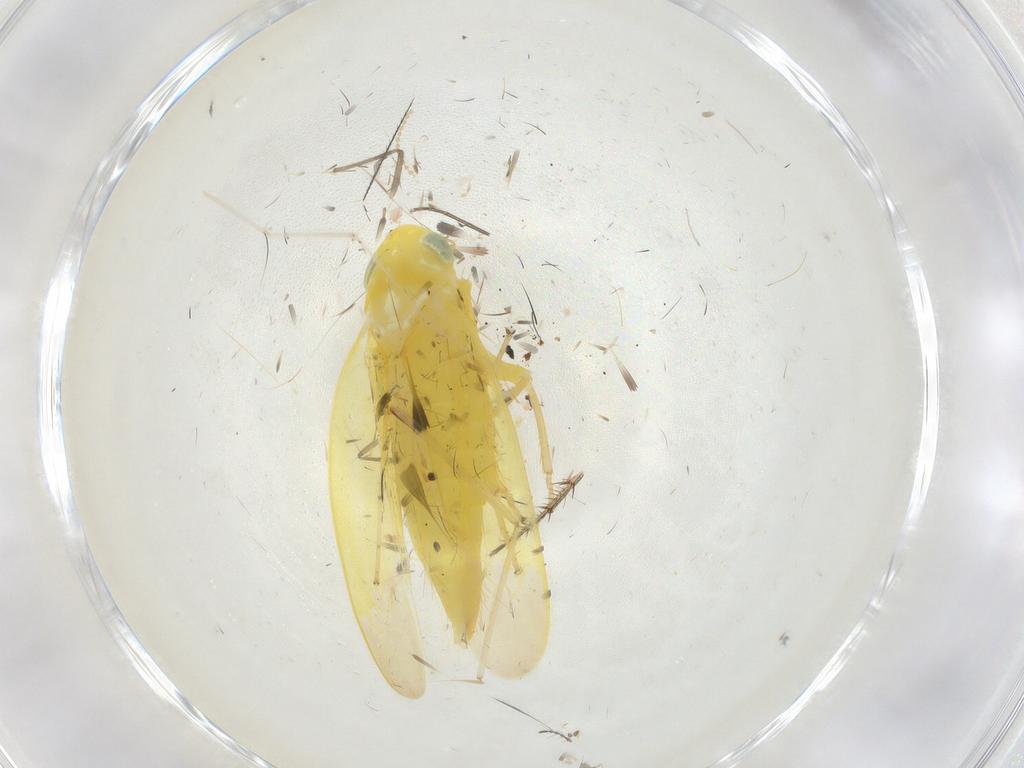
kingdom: Animalia
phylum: Arthropoda
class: Insecta
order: Hemiptera
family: Cicadellidae
